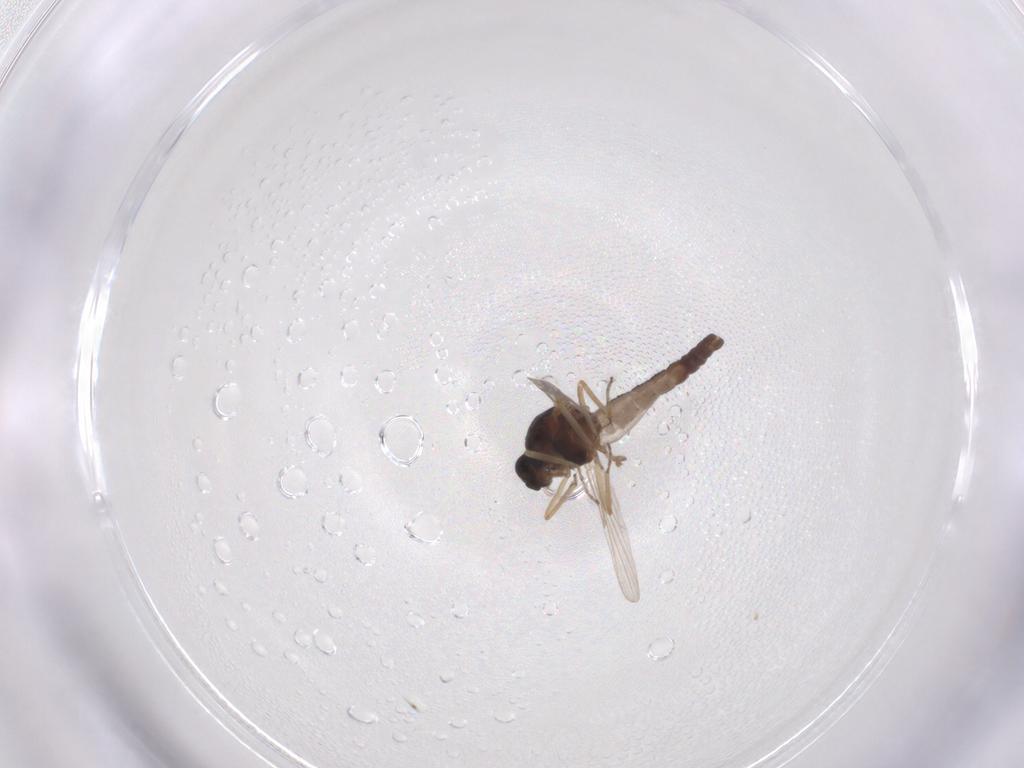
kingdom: Animalia
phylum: Arthropoda
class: Insecta
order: Diptera
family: Ceratopogonidae
